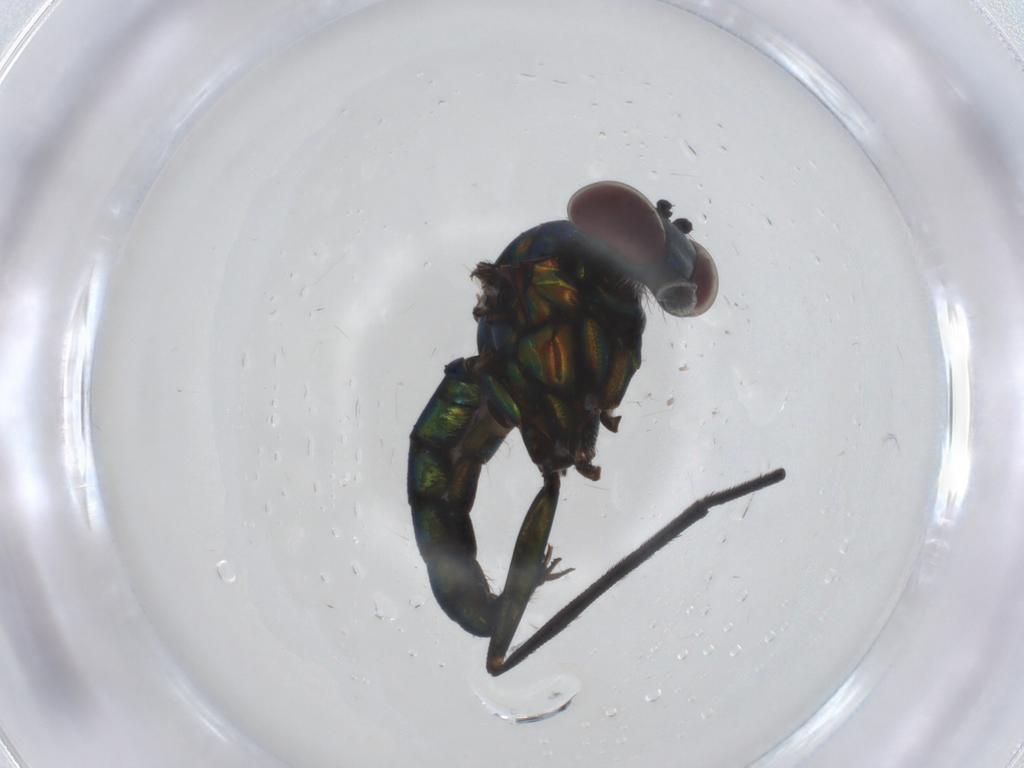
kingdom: Animalia
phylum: Arthropoda
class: Insecta
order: Diptera
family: Dolichopodidae
